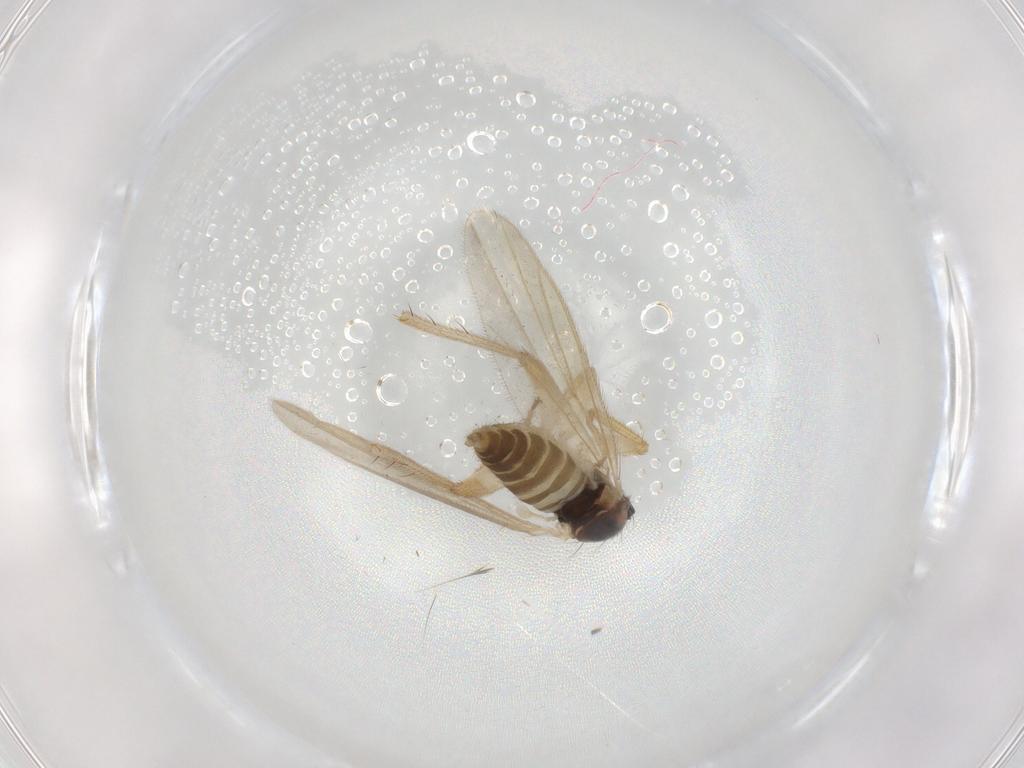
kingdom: Animalia
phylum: Arthropoda
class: Insecta
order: Diptera
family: Hybotidae
